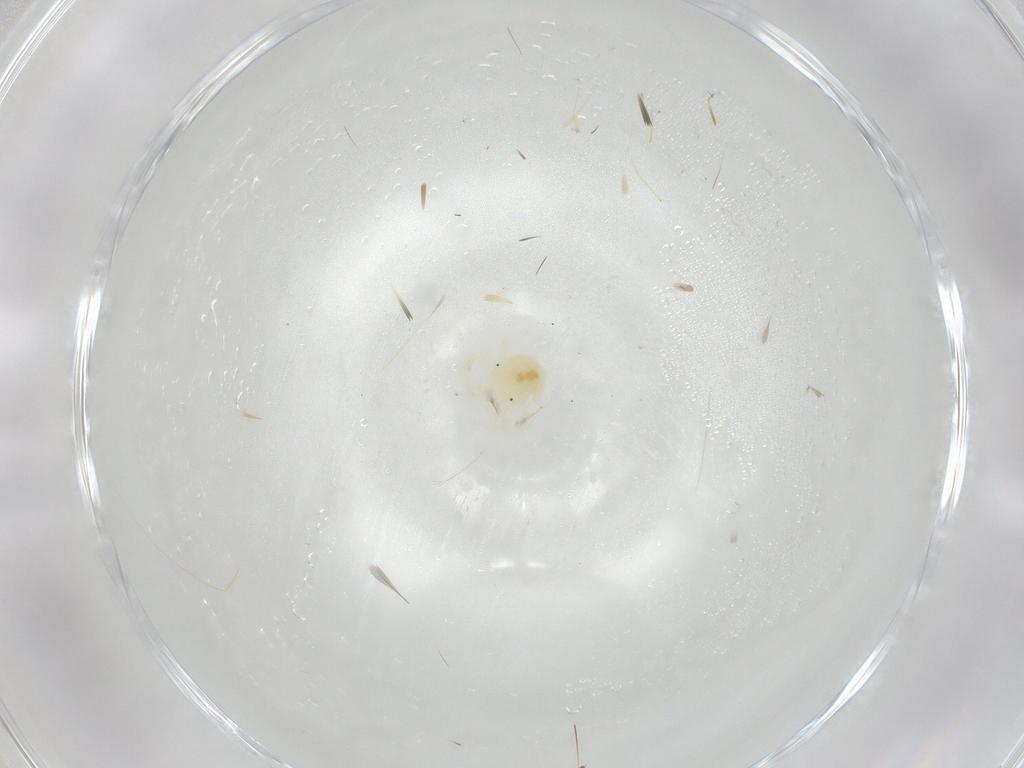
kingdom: Animalia
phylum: Arthropoda
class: Arachnida
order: Trombidiformes
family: Anystidae
